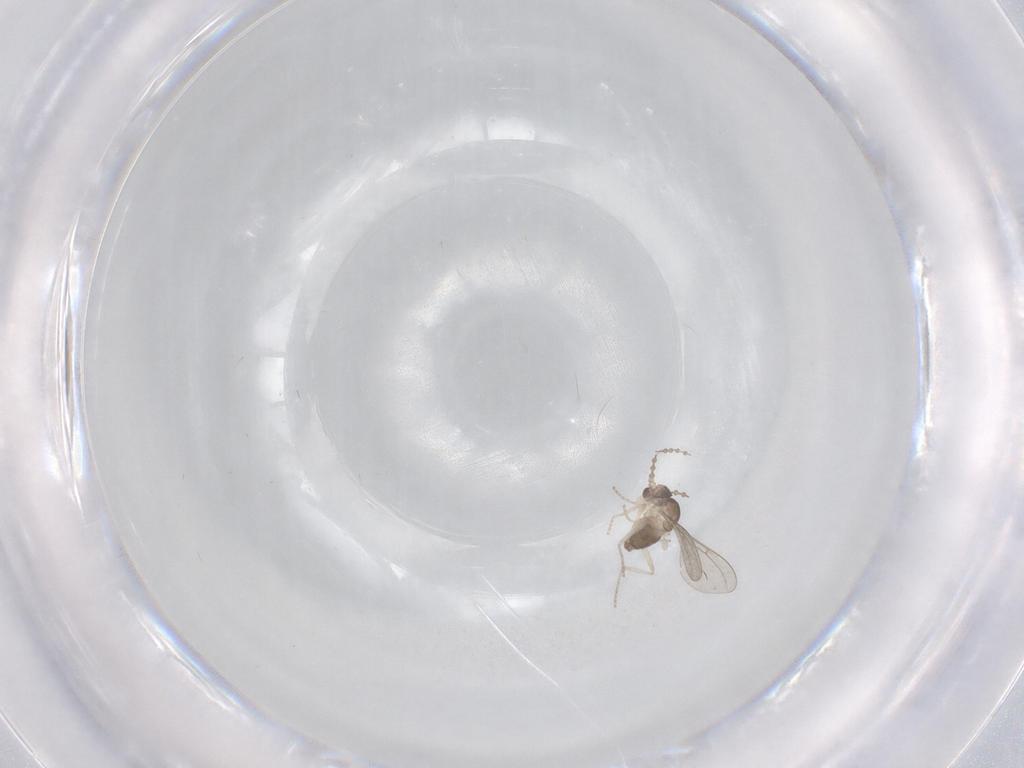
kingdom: Animalia
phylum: Arthropoda
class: Insecta
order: Diptera
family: Cecidomyiidae
